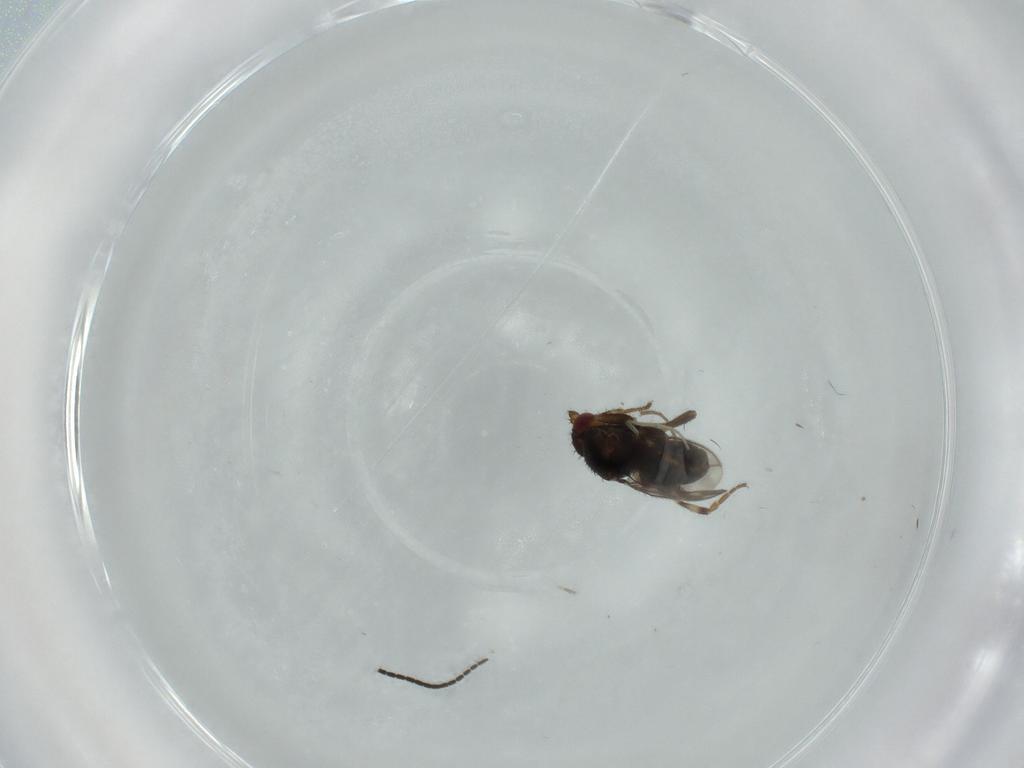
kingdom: Animalia
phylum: Arthropoda
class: Insecta
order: Diptera
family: Sphaeroceridae
